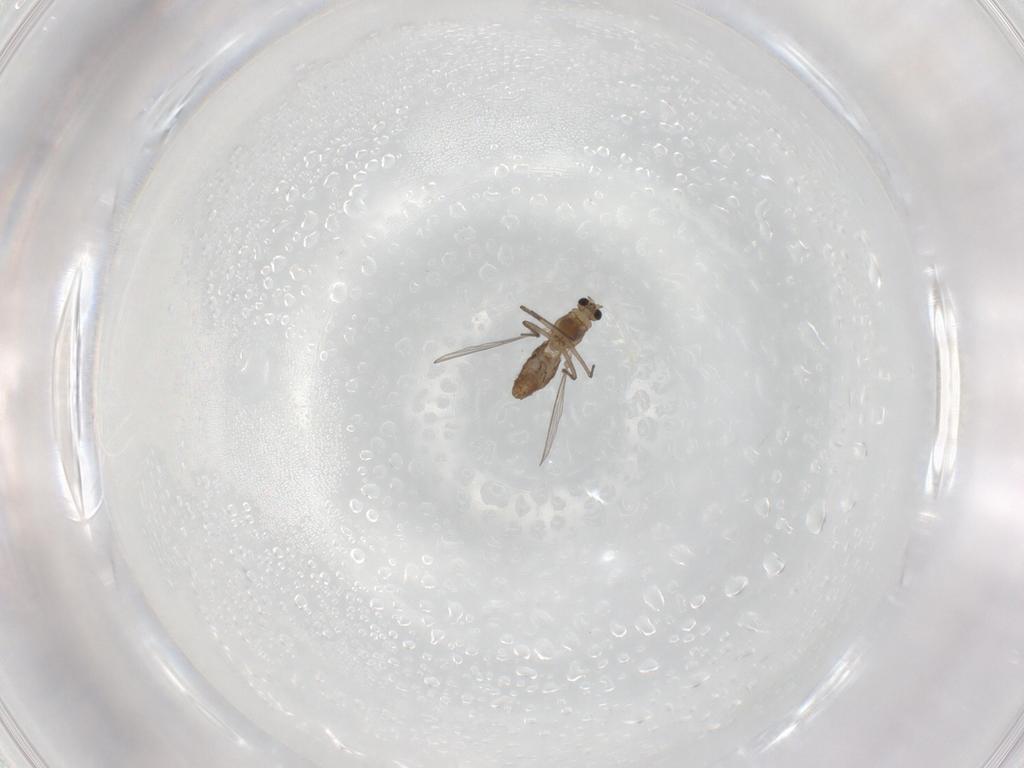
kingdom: Animalia
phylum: Arthropoda
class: Insecta
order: Diptera
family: Chironomidae
